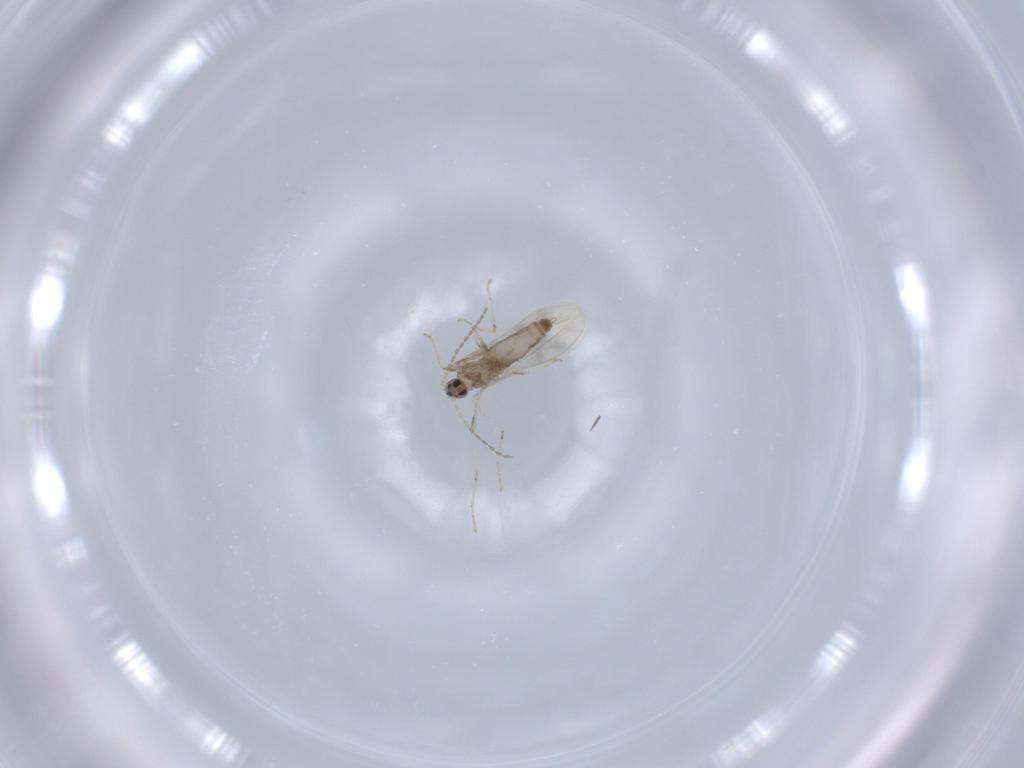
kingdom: Animalia
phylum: Arthropoda
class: Insecta
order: Diptera
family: Cecidomyiidae
